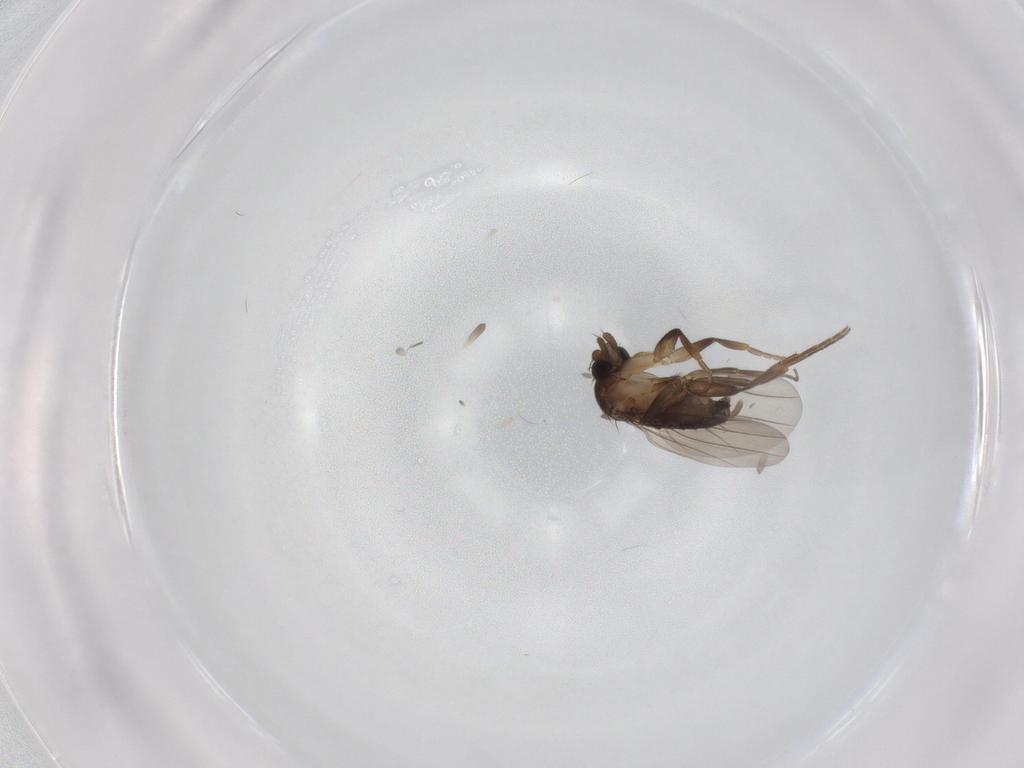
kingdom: Animalia
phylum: Arthropoda
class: Insecta
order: Diptera
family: Phoridae
